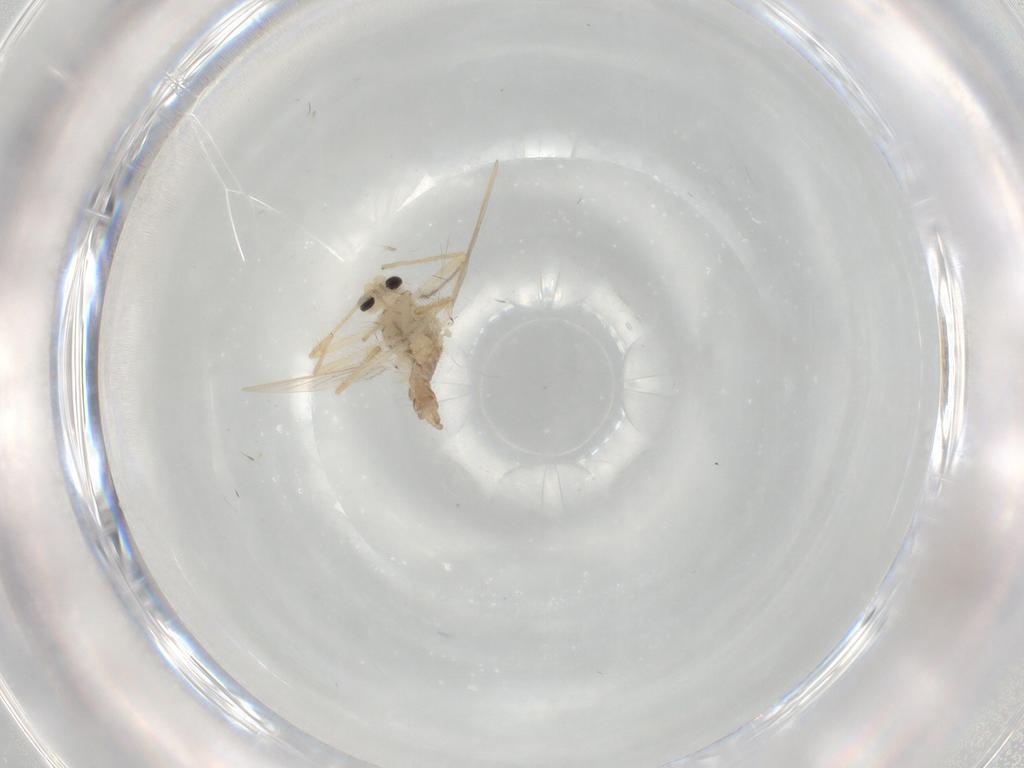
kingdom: Animalia
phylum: Arthropoda
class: Insecta
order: Diptera
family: Chironomidae
